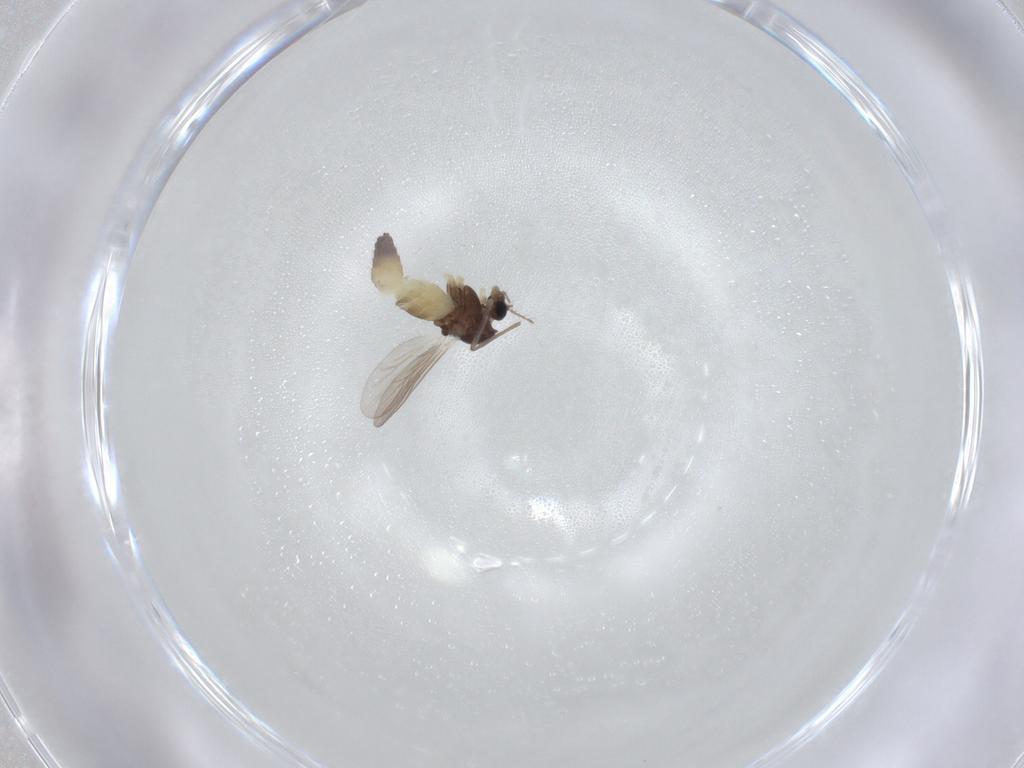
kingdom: Animalia
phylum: Arthropoda
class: Insecta
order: Diptera
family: Chironomidae
